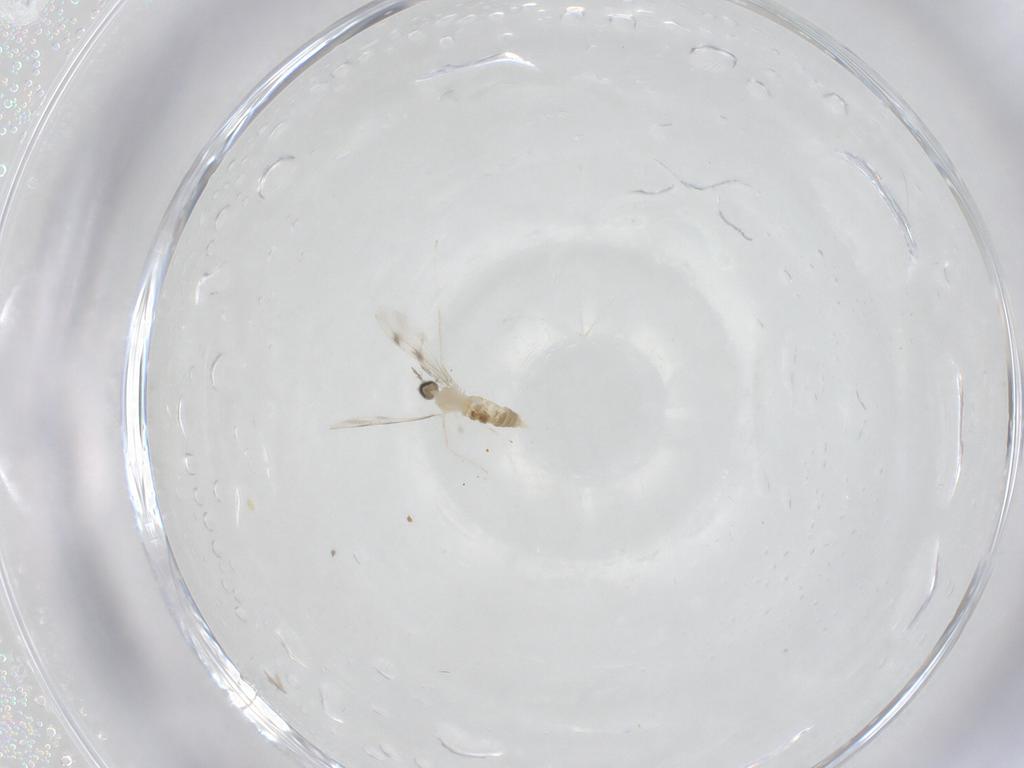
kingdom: Animalia
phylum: Arthropoda
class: Insecta
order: Diptera
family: Cecidomyiidae
